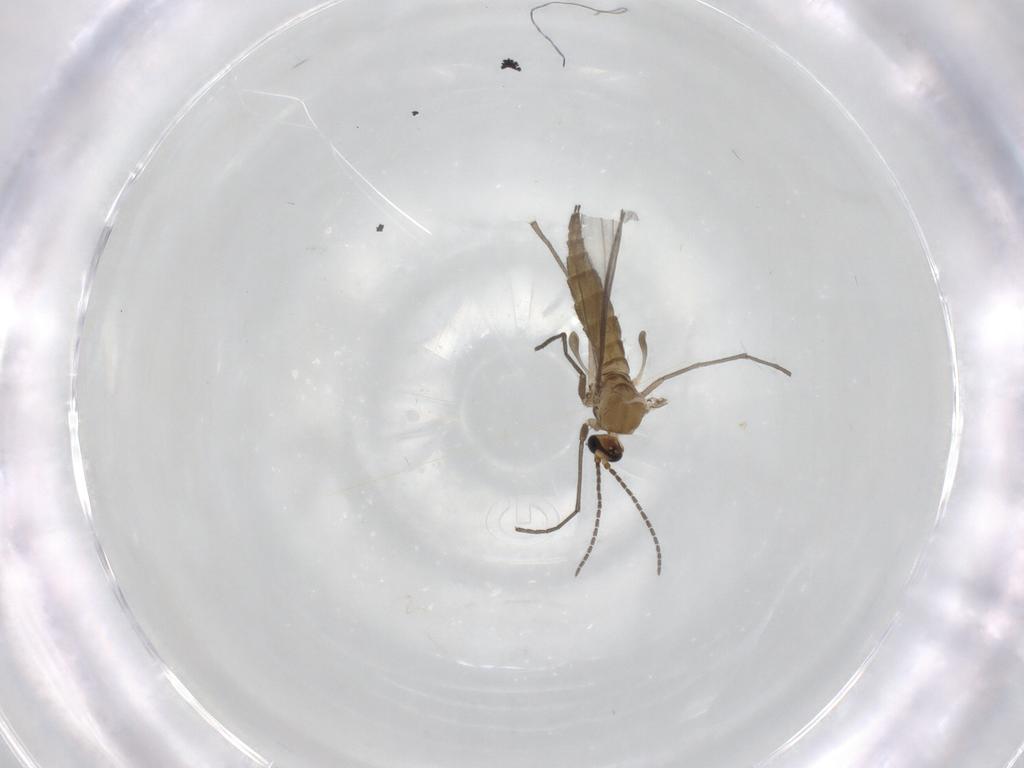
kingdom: Animalia
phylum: Arthropoda
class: Insecta
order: Diptera
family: Sciaridae
